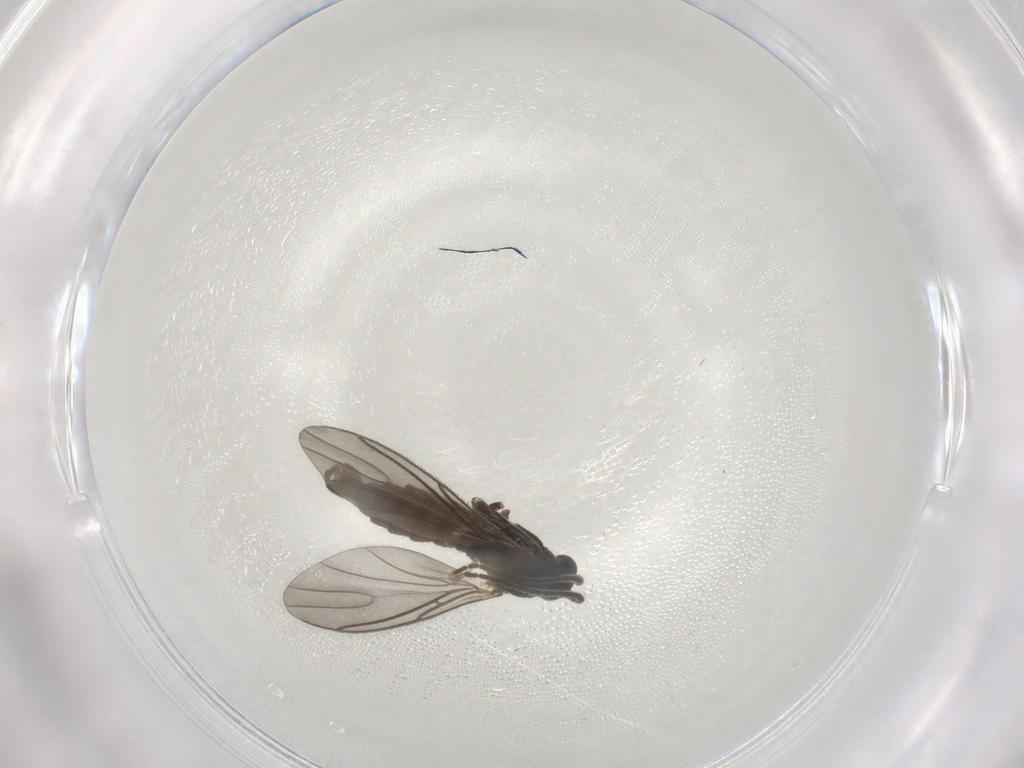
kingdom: Animalia
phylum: Arthropoda
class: Insecta
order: Diptera
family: Sciaridae
